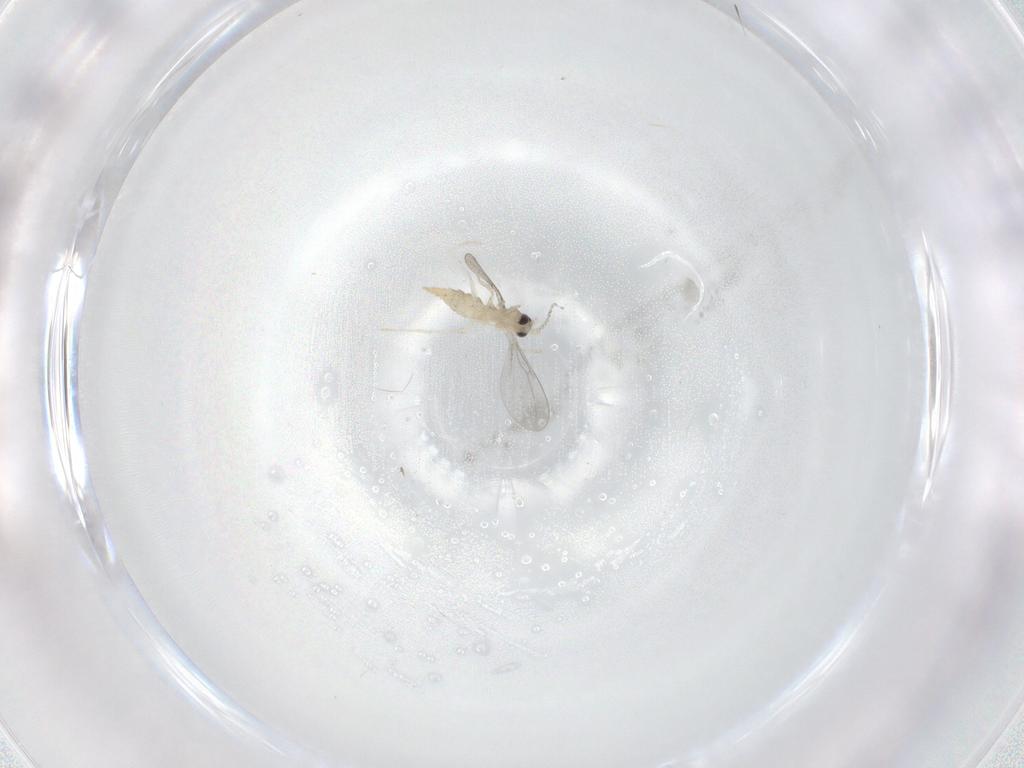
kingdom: Animalia
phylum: Arthropoda
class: Insecta
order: Diptera
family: Cecidomyiidae
